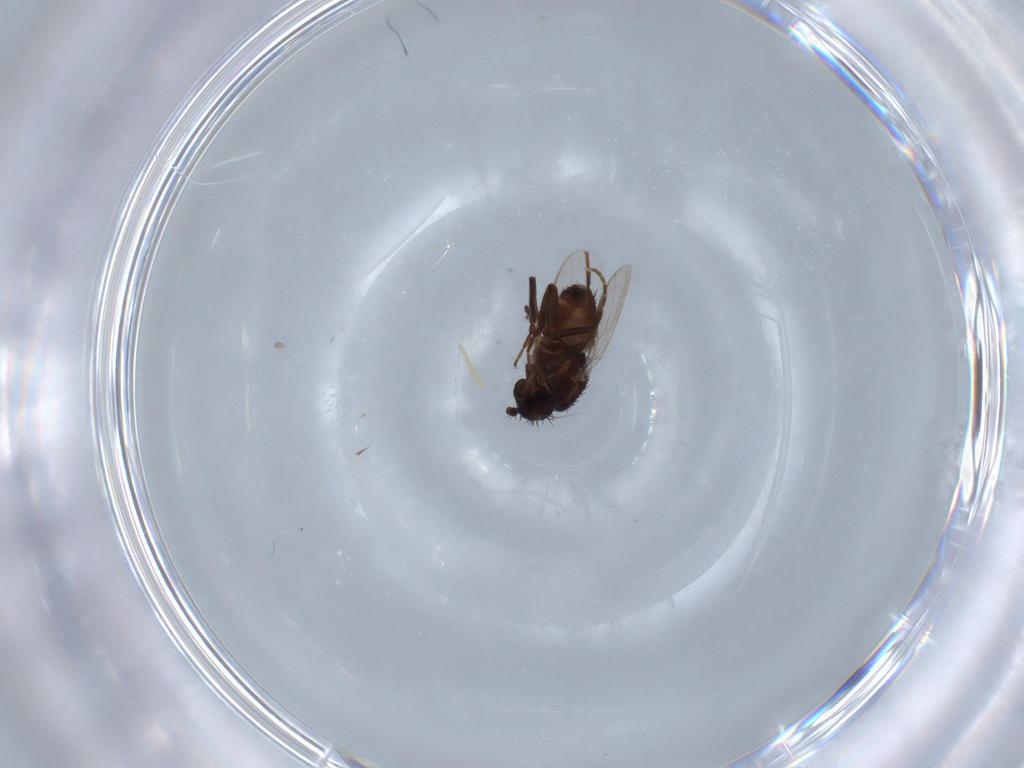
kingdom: Animalia
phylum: Arthropoda
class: Insecta
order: Diptera
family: Sphaeroceridae
